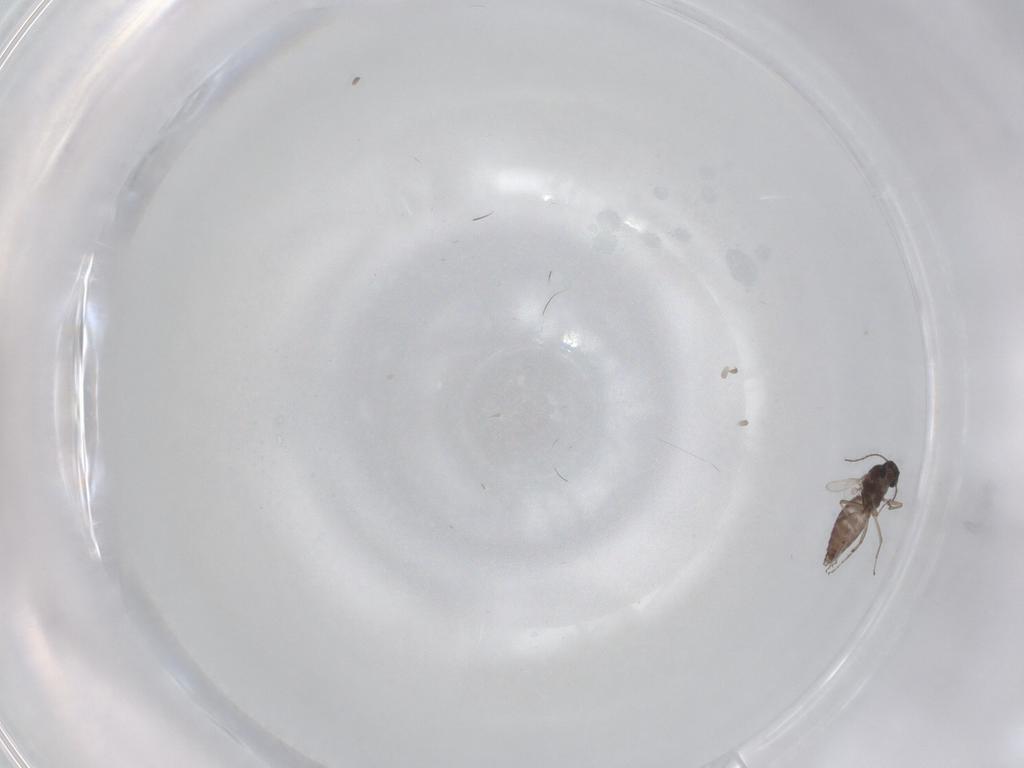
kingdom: Animalia
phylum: Arthropoda
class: Insecta
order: Diptera
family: Ceratopogonidae
